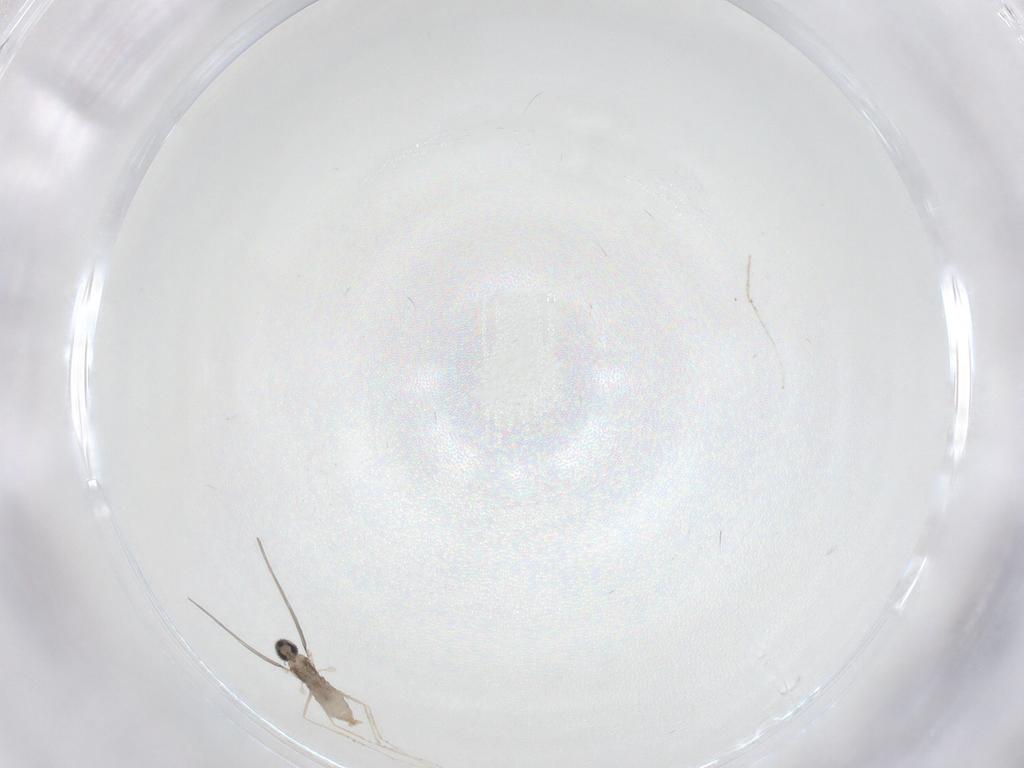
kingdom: Animalia
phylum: Arthropoda
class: Insecta
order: Diptera
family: Cecidomyiidae
